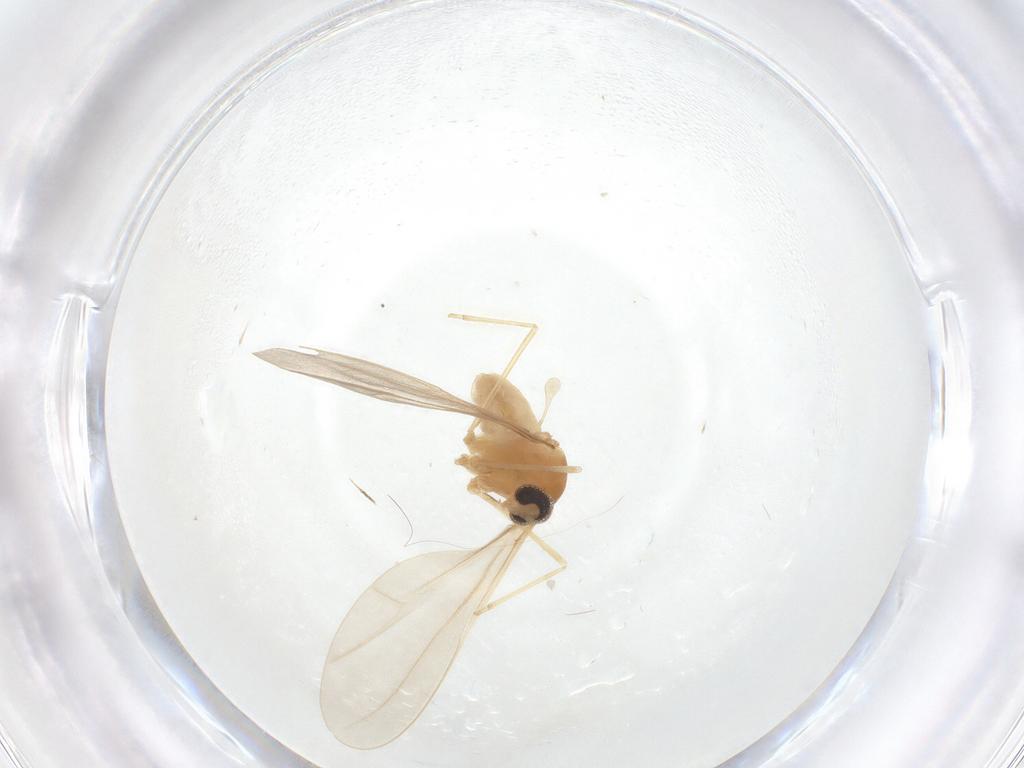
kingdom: Animalia
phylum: Arthropoda
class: Insecta
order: Diptera
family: Cecidomyiidae
